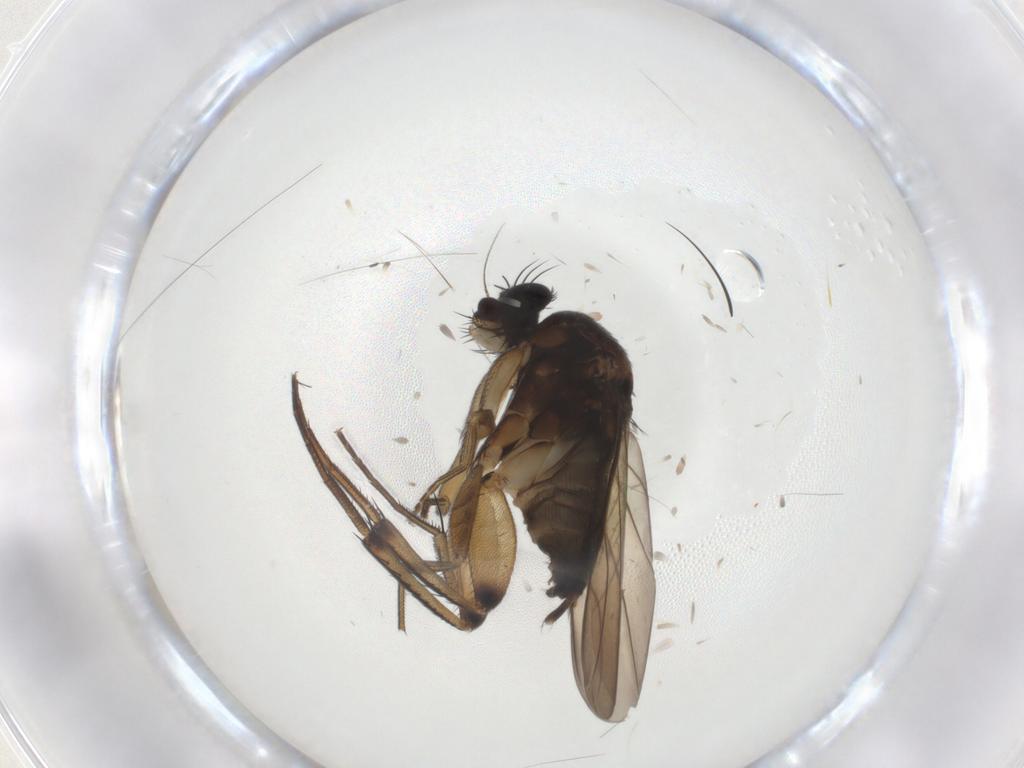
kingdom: Animalia
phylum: Arthropoda
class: Insecta
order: Diptera
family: Phoridae
